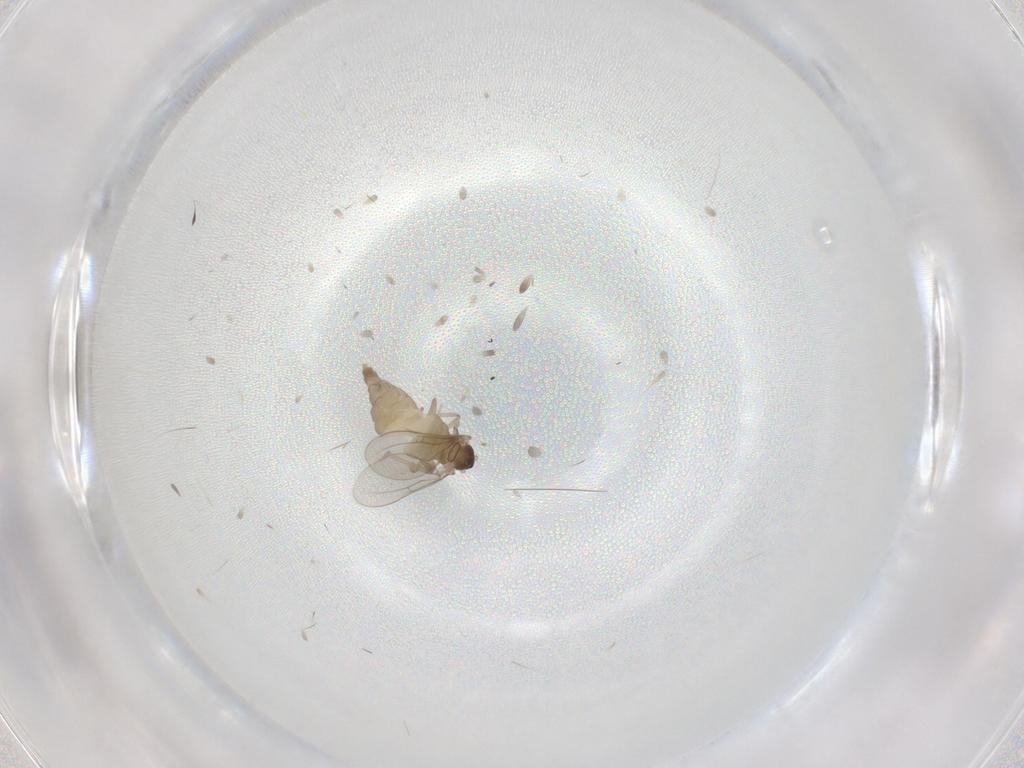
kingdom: Animalia
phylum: Arthropoda
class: Insecta
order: Diptera
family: Cecidomyiidae
